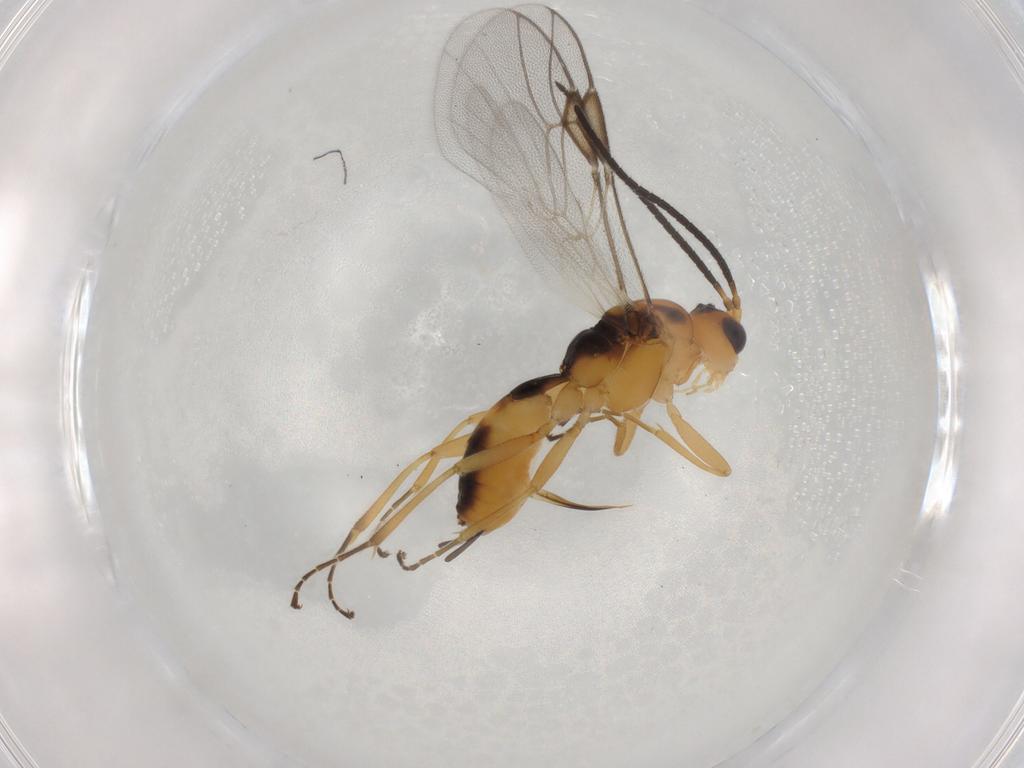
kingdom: Animalia
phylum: Arthropoda
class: Insecta
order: Hymenoptera
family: Braconidae
